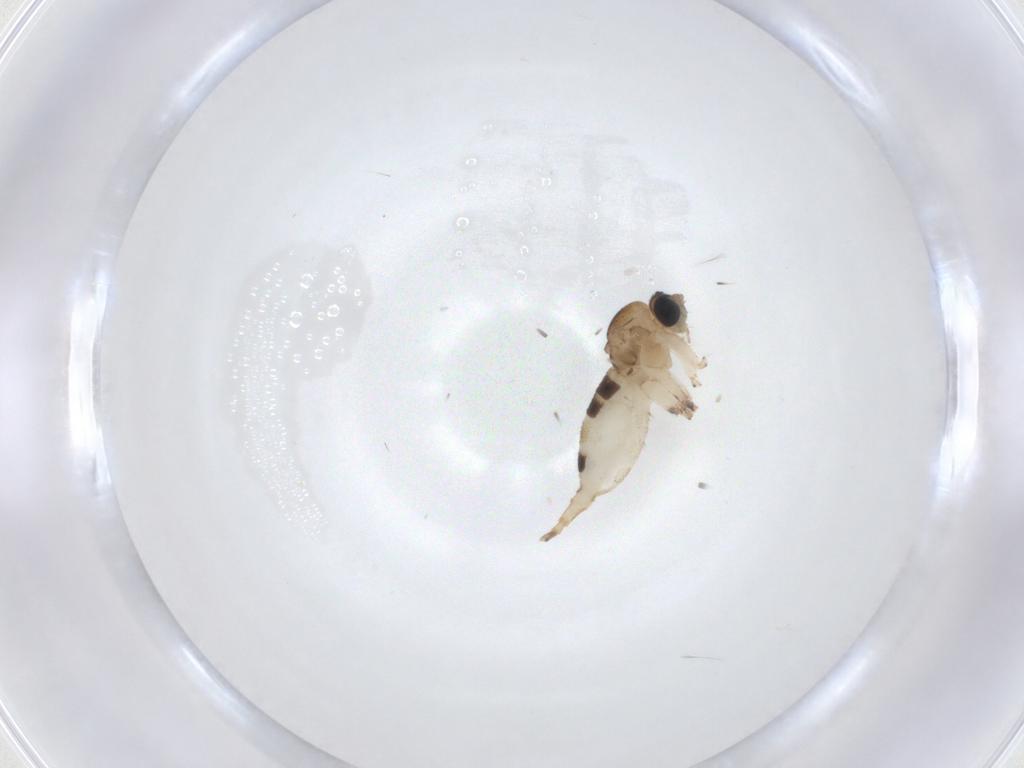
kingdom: Animalia
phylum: Arthropoda
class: Insecta
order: Diptera
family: Sciaridae
